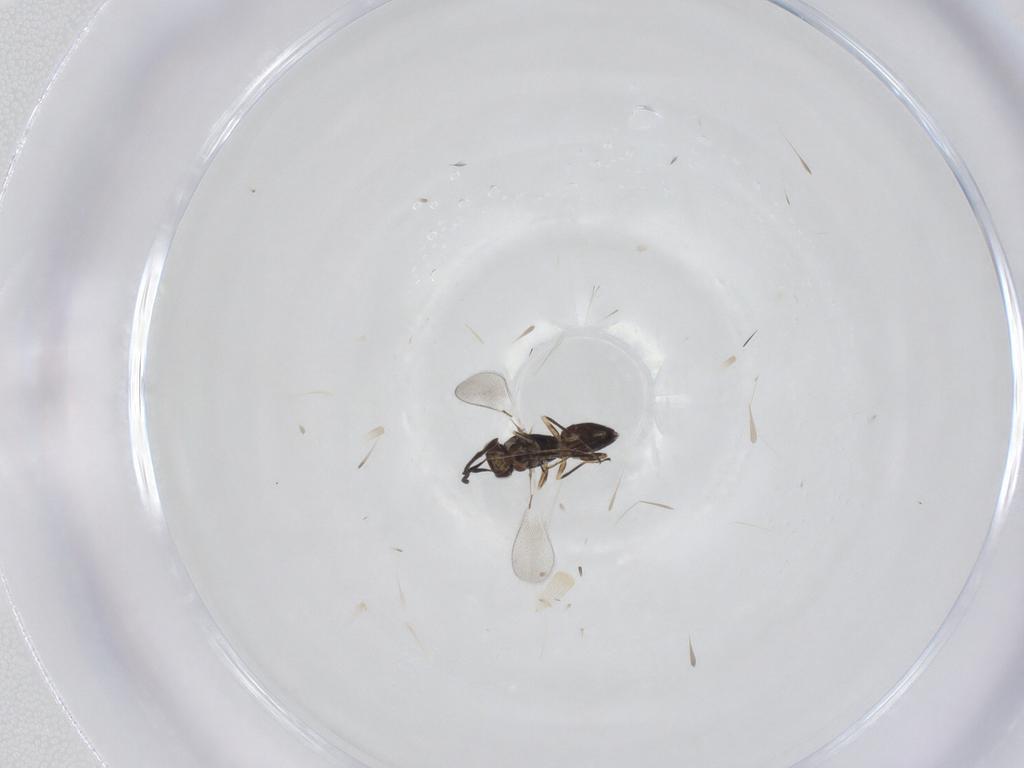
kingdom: Animalia
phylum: Arthropoda
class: Insecta
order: Hymenoptera
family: Mymaridae
